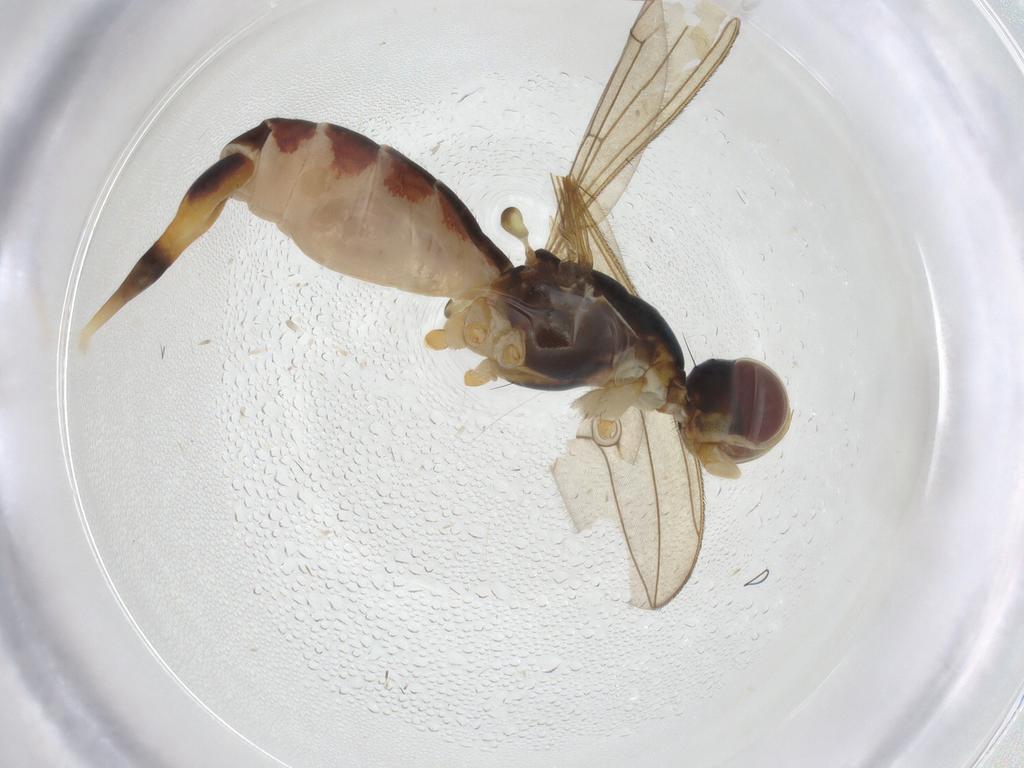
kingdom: Animalia
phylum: Arthropoda
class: Insecta
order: Diptera
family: Micropezidae
